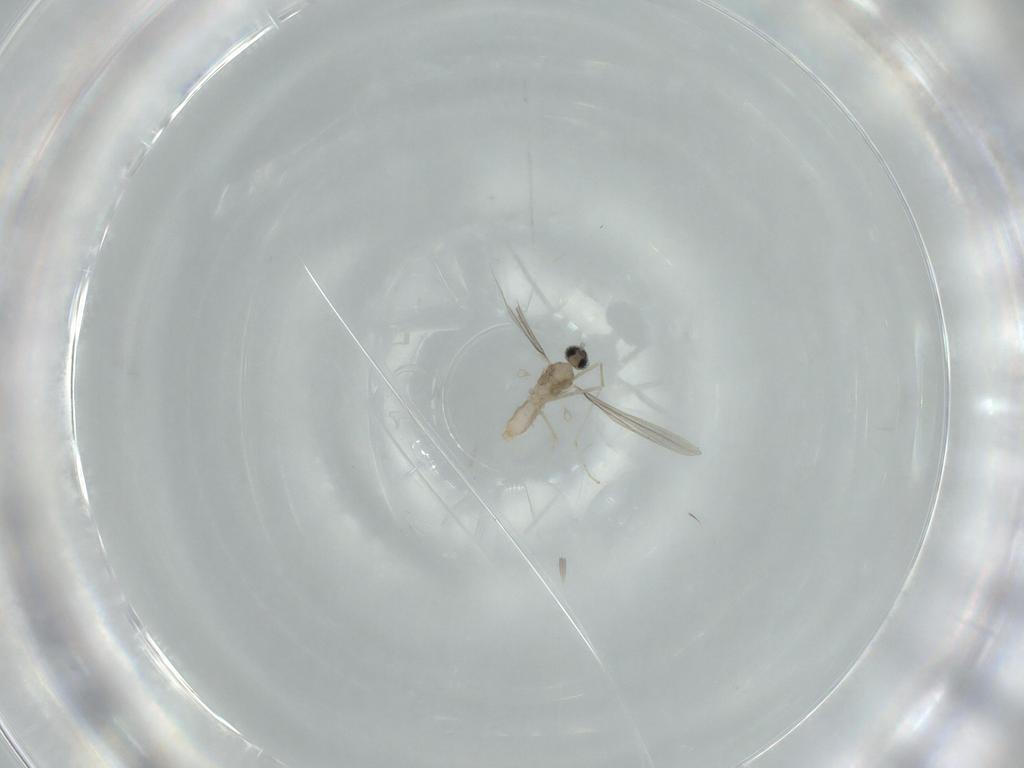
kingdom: Animalia
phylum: Arthropoda
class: Insecta
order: Diptera
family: Cecidomyiidae
